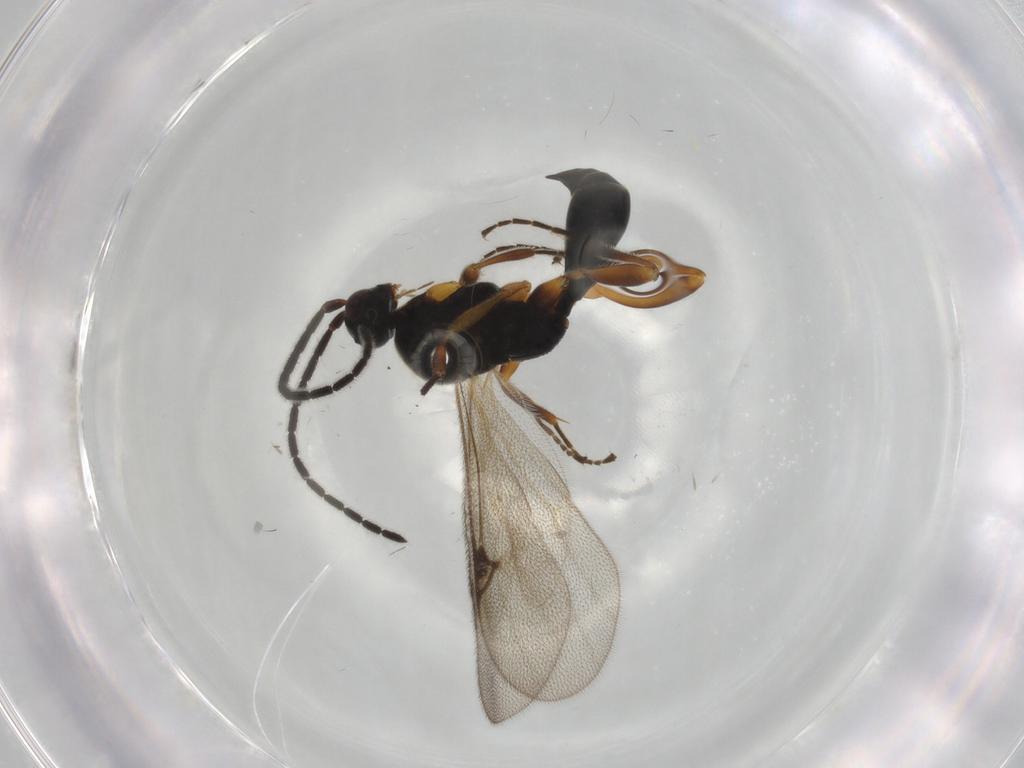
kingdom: Animalia
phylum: Arthropoda
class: Insecta
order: Hymenoptera
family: Proctotrupidae
